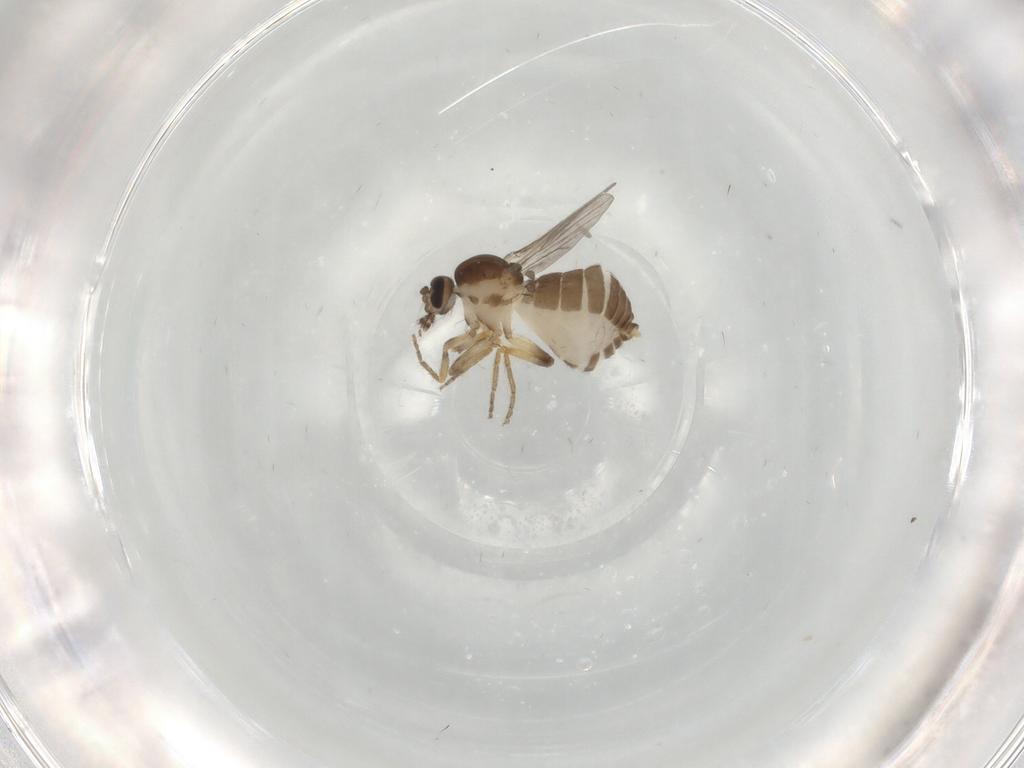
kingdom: Animalia
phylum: Arthropoda
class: Insecta
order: Diptera
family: Ceratopogonidae
